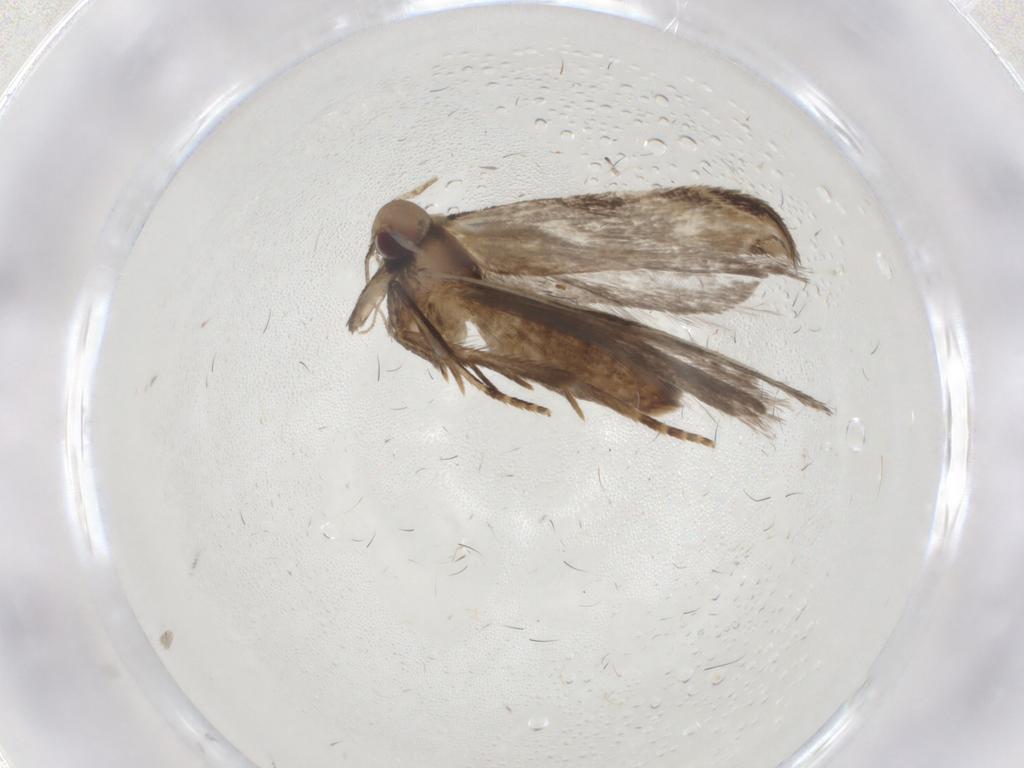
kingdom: Animalia
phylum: Arthropoda
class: Insecta
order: Lepidoptera
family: Gelechiidae
